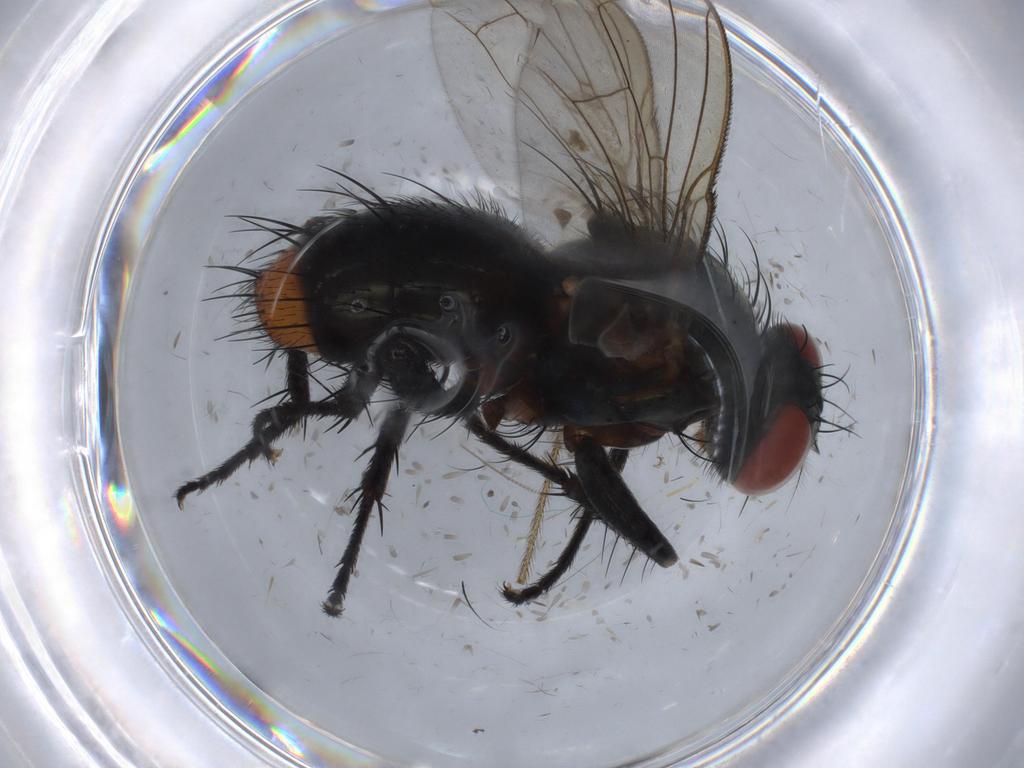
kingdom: Animalia
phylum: Arthropoda
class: Insecta
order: Diptera
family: Sarcophagidae
